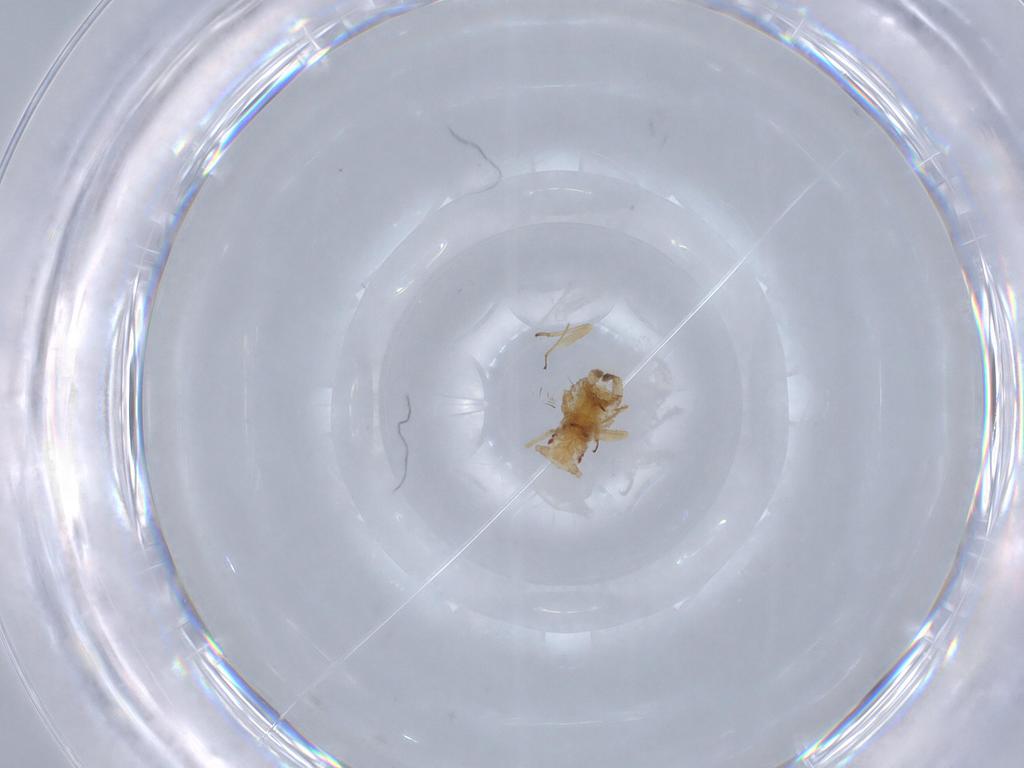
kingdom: Animalia
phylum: Arthropoda
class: Insecta
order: Hemiptera
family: Aphididae
